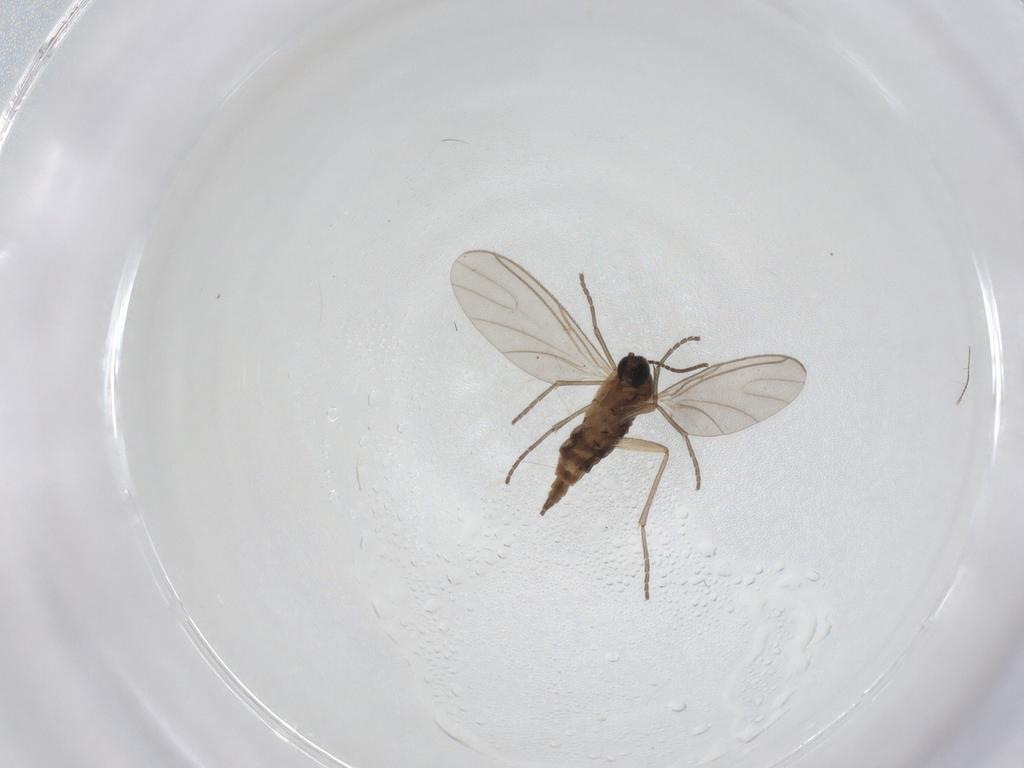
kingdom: Animalia
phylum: Arthropoda
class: Insecta
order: Diptera
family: Sciaridae
